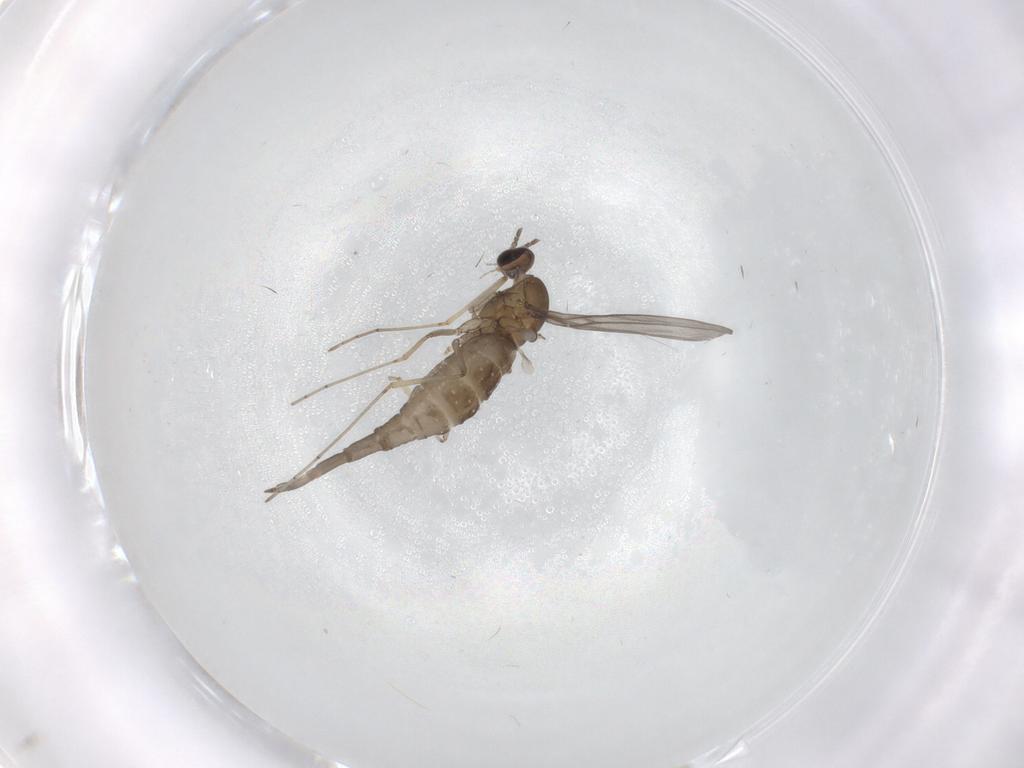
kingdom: Animalia
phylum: Arthropoda
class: Insecta
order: Diptera
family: Cecidomyiidae
